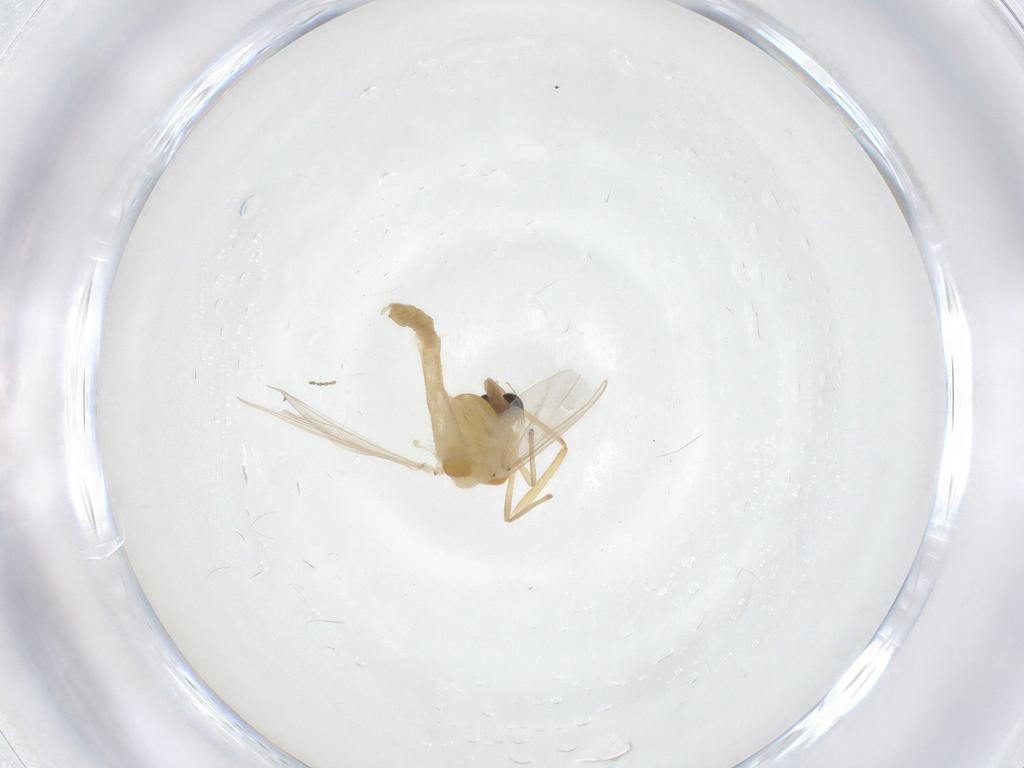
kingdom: Animalia
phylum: Arthropoda
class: Insecta
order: Diptera
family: Chironomidae
